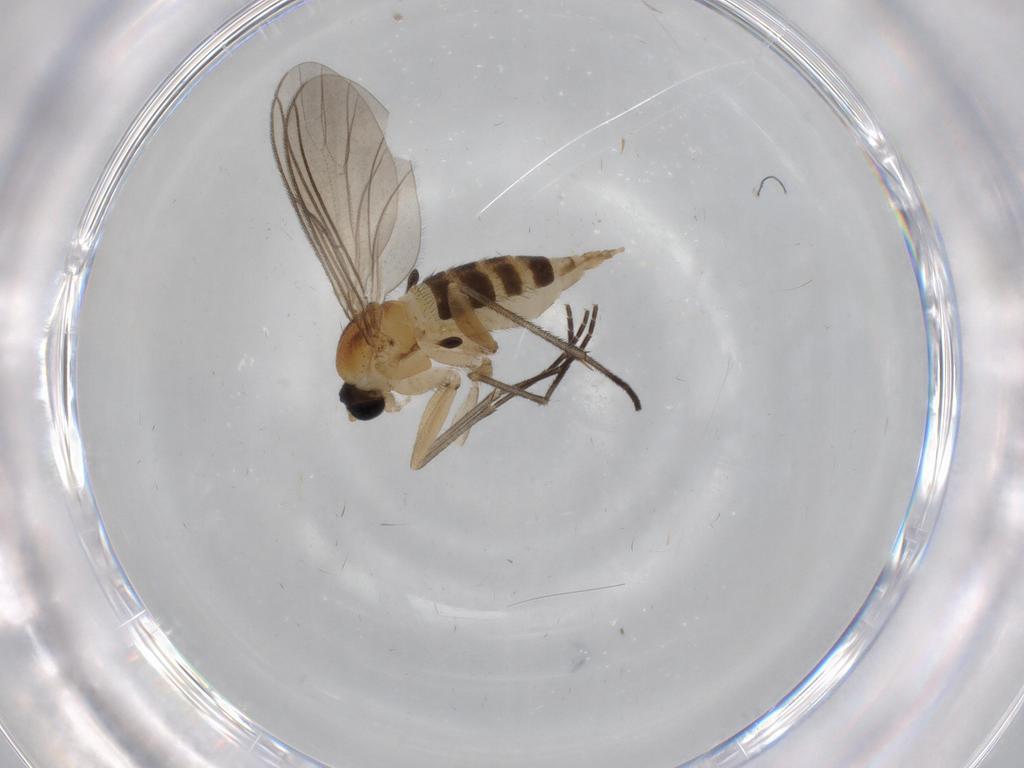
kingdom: Animalia
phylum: Arthropoda
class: Insecta
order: Diptera
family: Sciaridae
